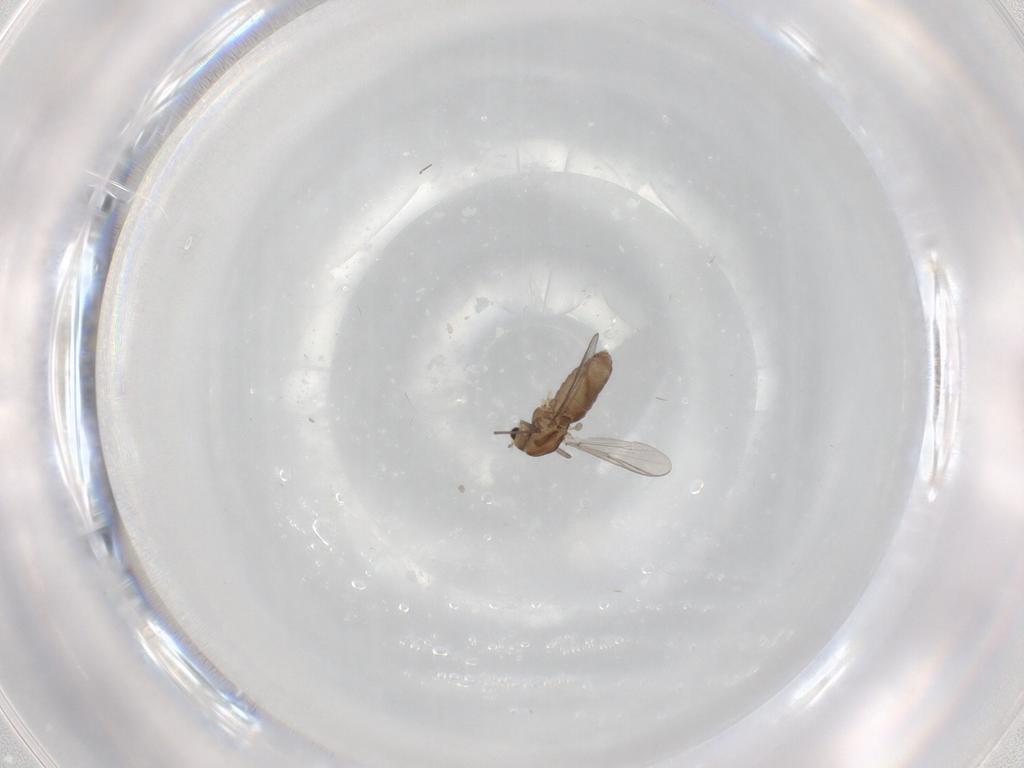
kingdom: Animalia
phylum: Arthropoda
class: Insecta
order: Diptera
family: Chironomidae
